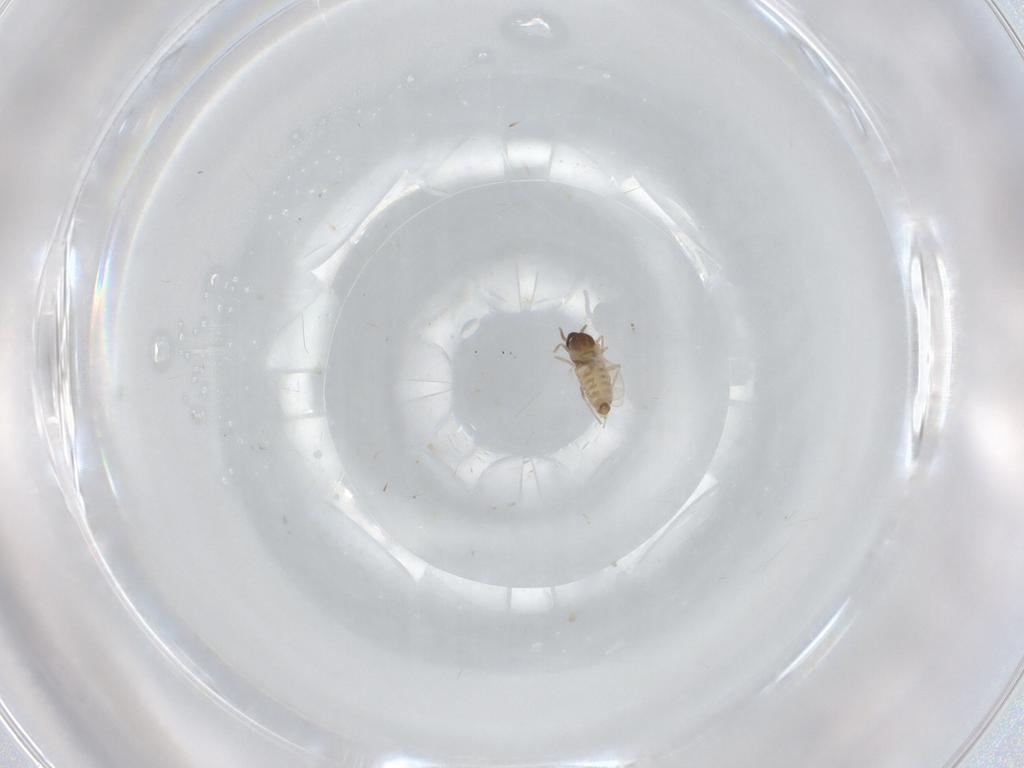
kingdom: Animalia
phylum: Arthropoda
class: Insecta
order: Diptera
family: Cecidomyiidae
